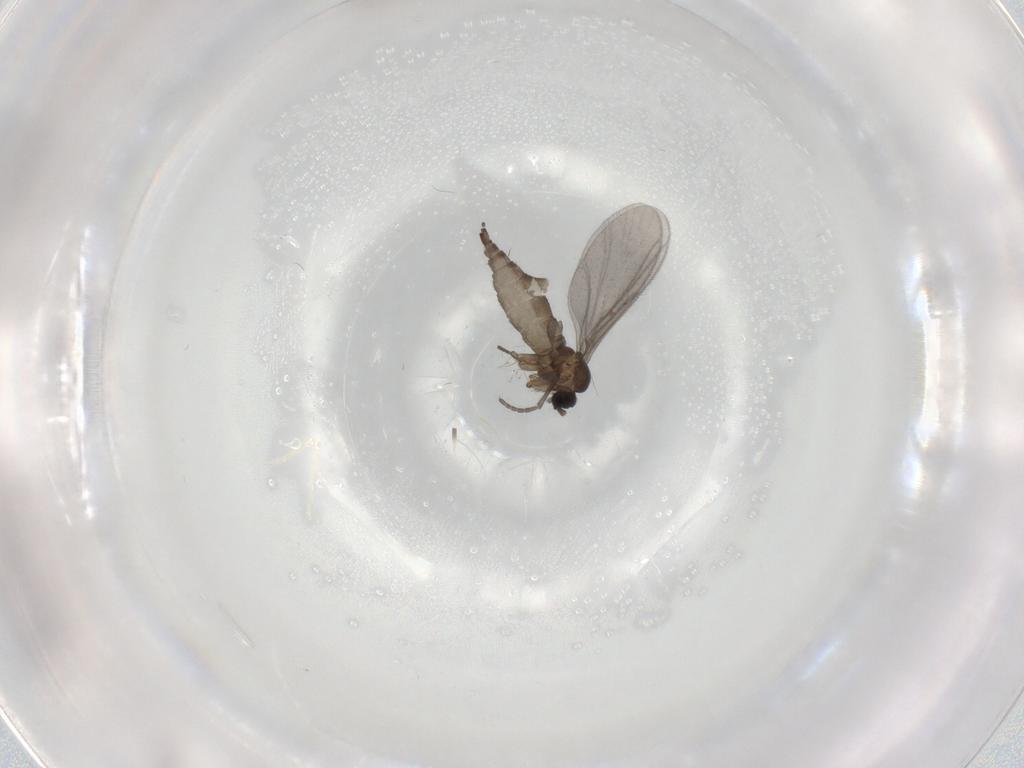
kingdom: Animalia
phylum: Arthropoda
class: Insecta
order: Diptera
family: Sciaridae
